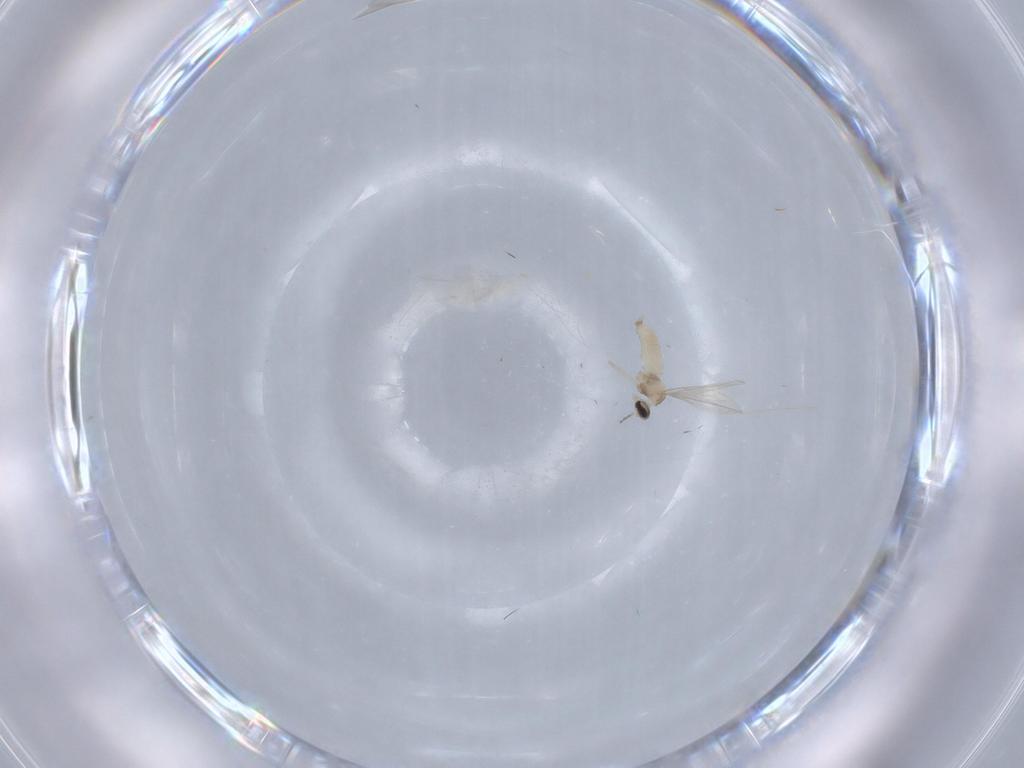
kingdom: Animalia
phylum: Arthropoda
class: Insecta
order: Diptera
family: Cecidomyiidae
